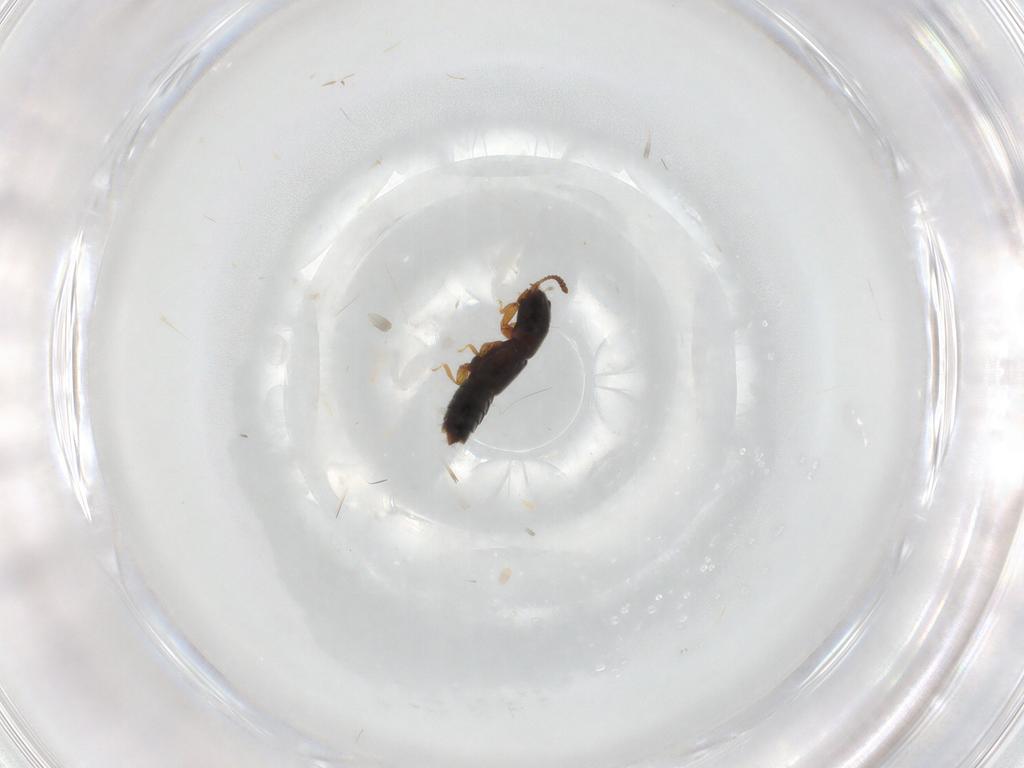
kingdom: Animalia
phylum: Arthropoda
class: Insecta
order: Coleoptera
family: Staphylinidae
